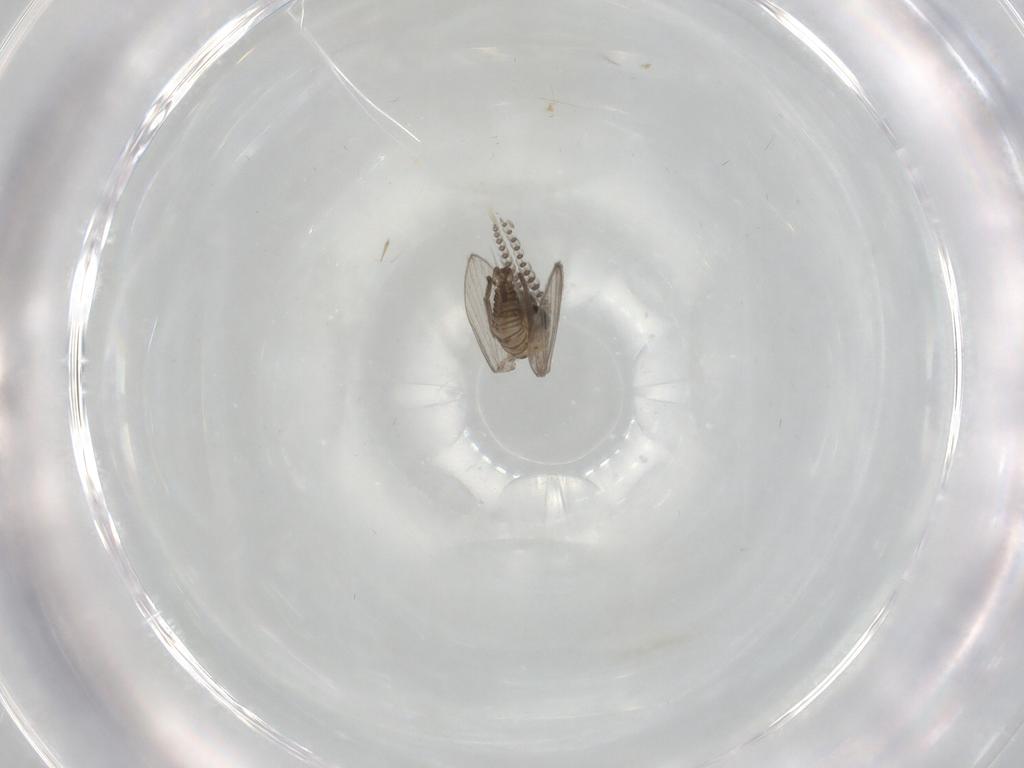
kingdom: Animalia
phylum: Arthropoda
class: Insecta
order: Diptera
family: Psychodidae
